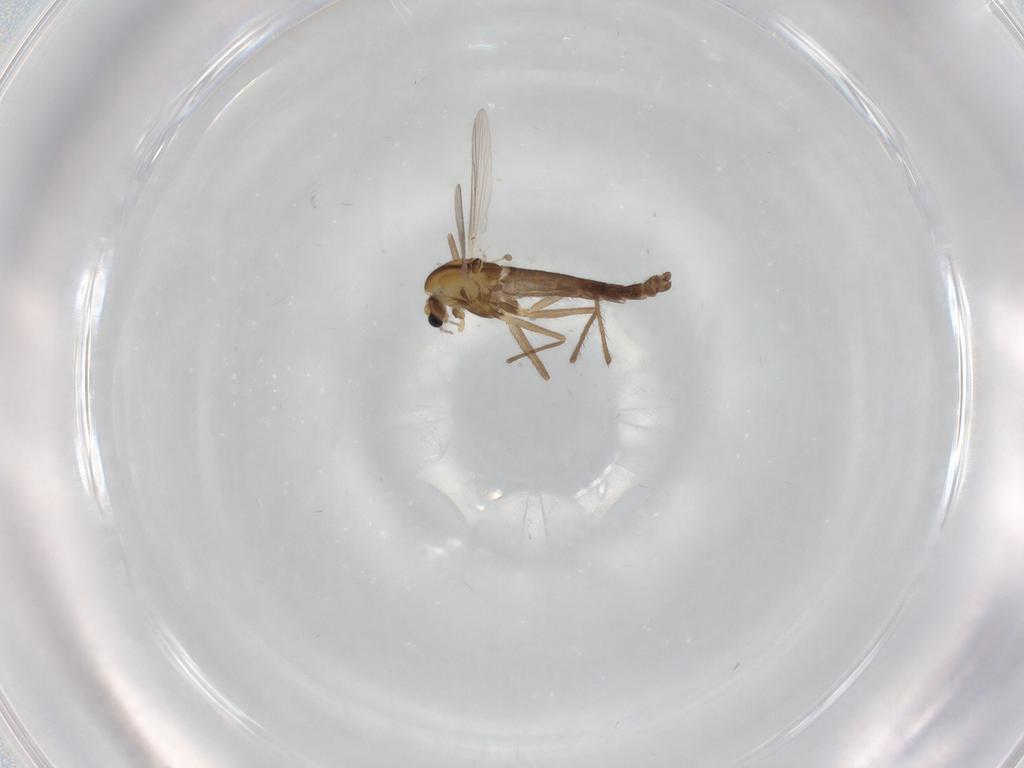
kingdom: Animalia
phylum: Arthropoda
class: Insecta
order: Diptera
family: Chironomidae
